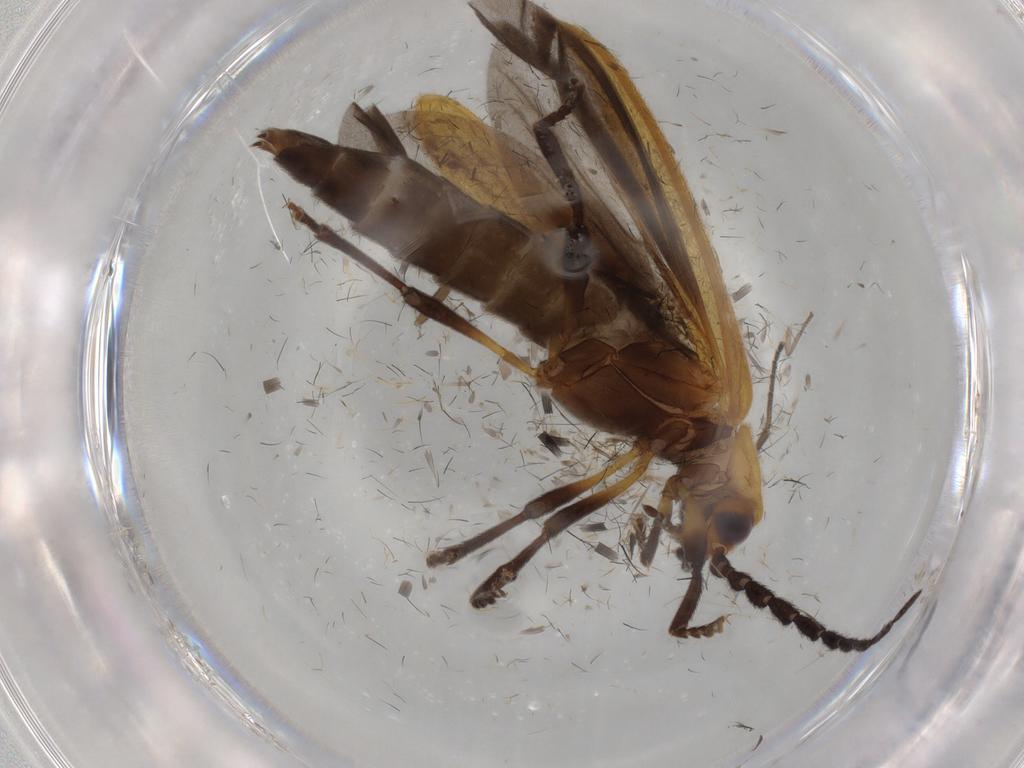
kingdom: Animalia
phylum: Arthropoda
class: Insecta
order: Coleoptera
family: Lycidae
